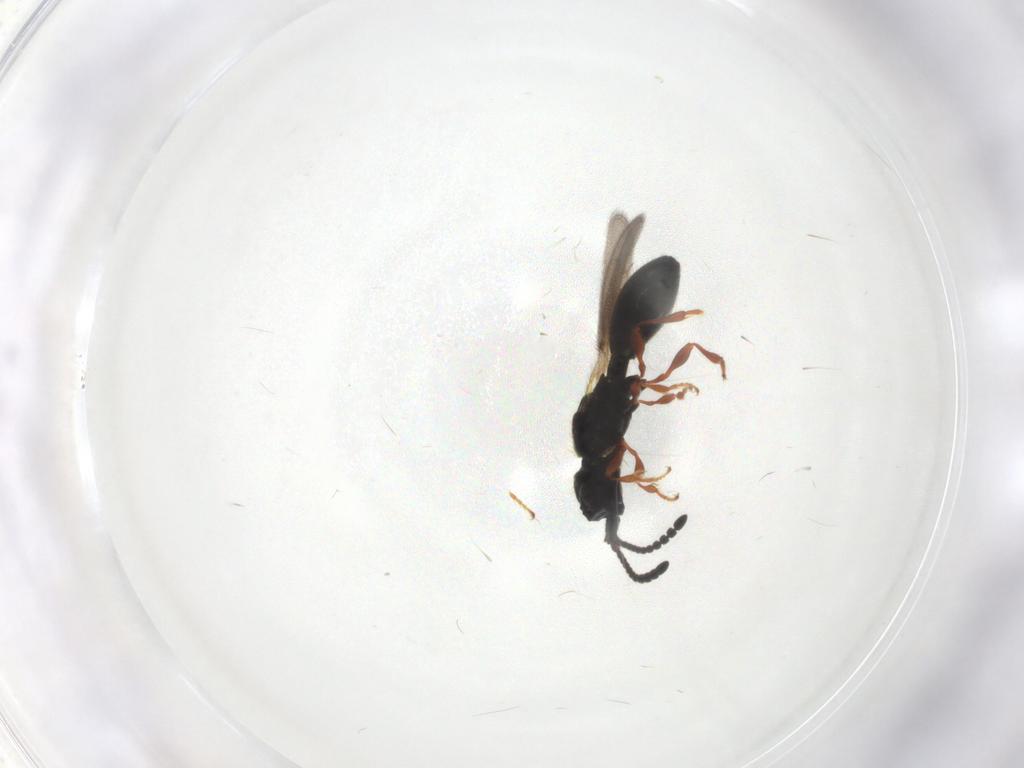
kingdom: Animalia
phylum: Arthropoda
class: Insecta
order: Hymenoptera
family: Diapriidae
